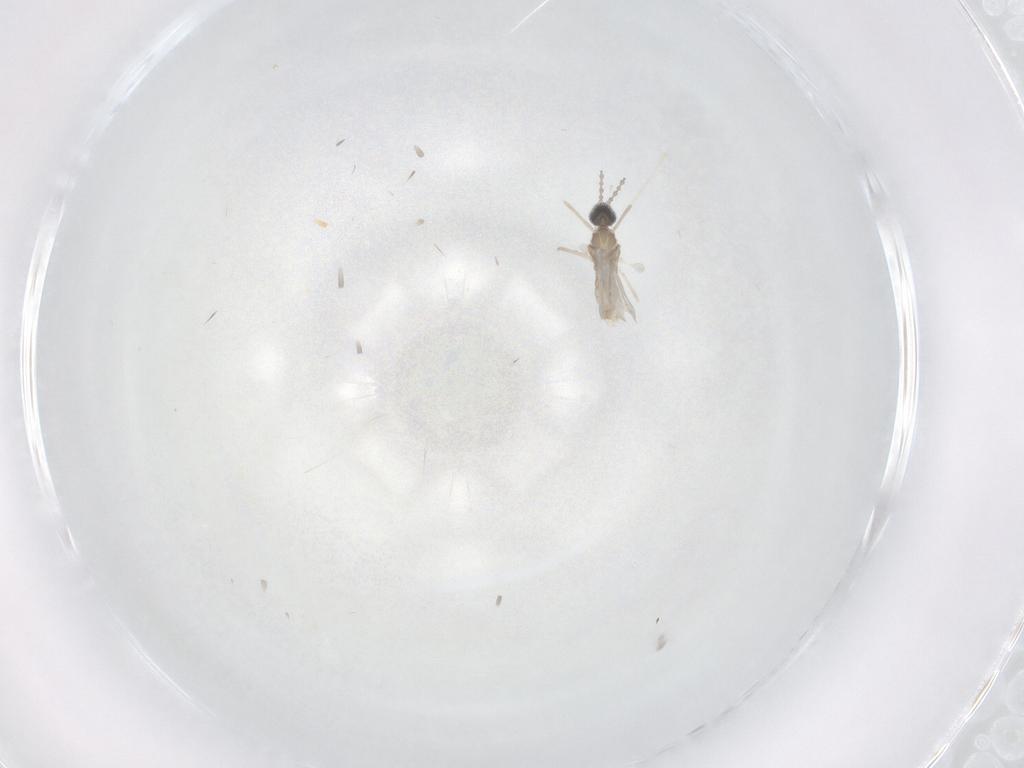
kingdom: Animalia
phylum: Arthropoda
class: Insecta
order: Diptera
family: Cecidomyiidae
